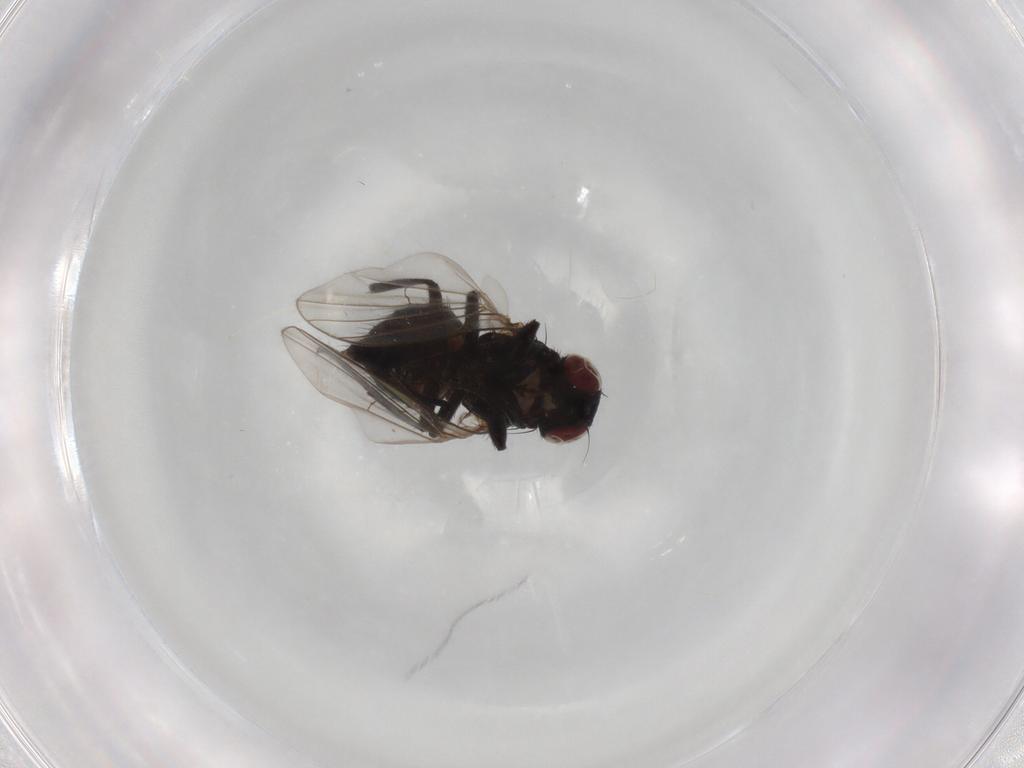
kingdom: Animalia
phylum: Arthropoda
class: Insecta
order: Diptera
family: Agromyzidae
